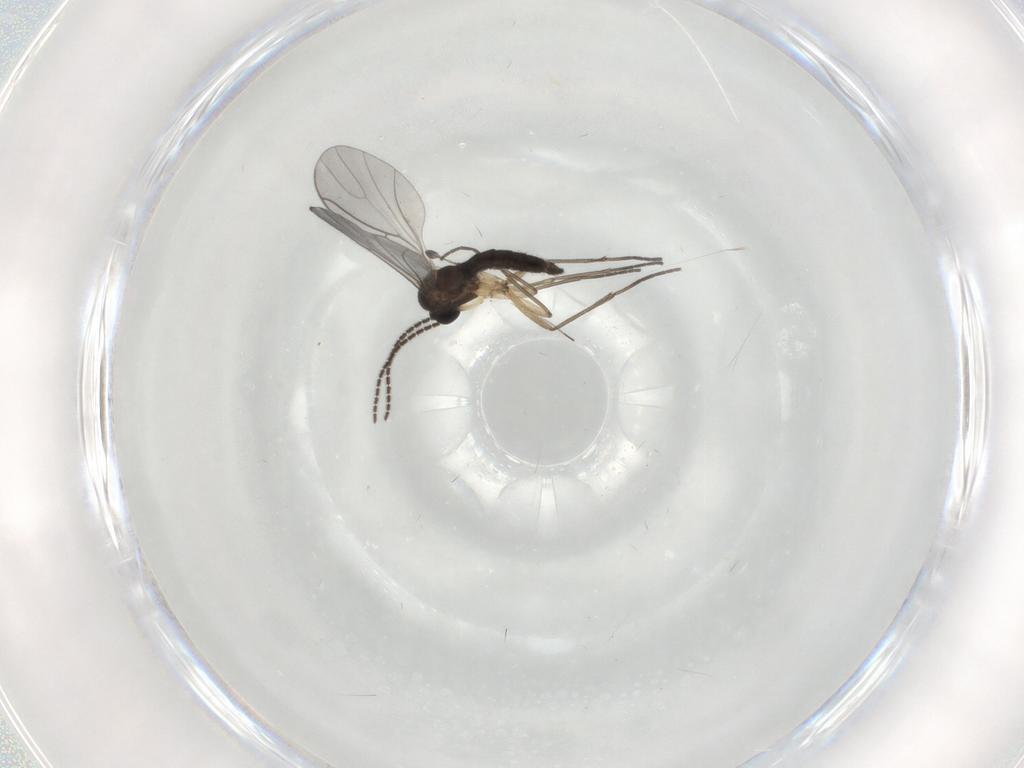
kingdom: Animalia
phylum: Arthropoda
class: Insecta
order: Diptera
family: Sciaridae
